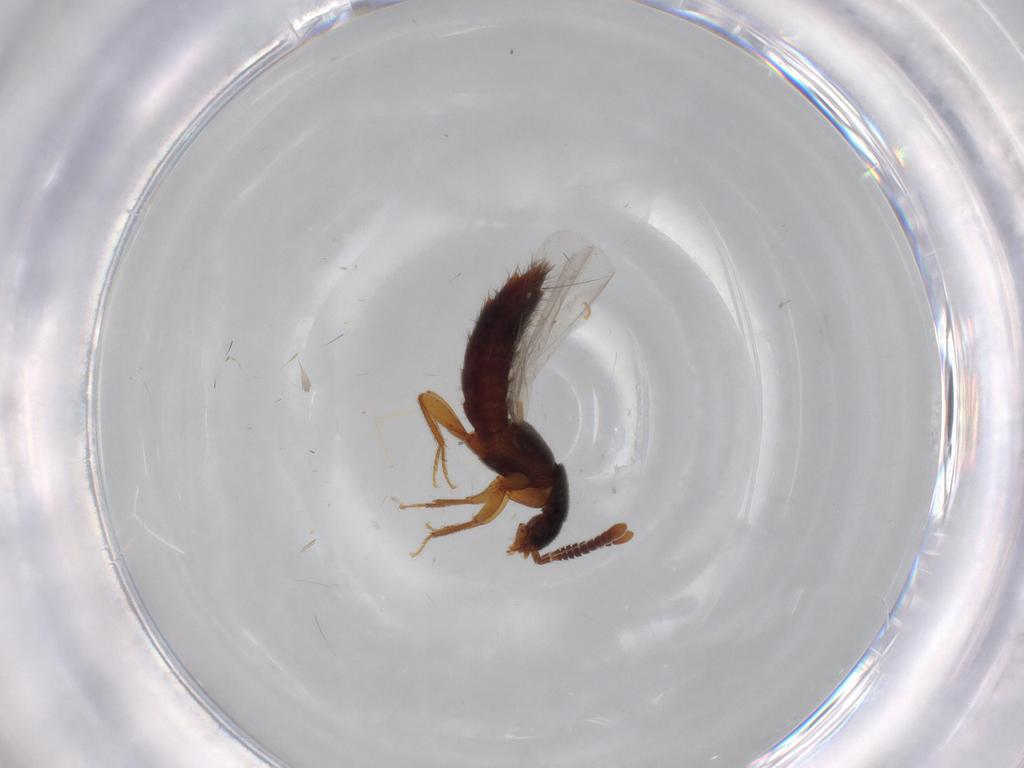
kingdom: Animalia
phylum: Arthropoda
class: Insecta
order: Coleoptera
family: Staphylinidae
